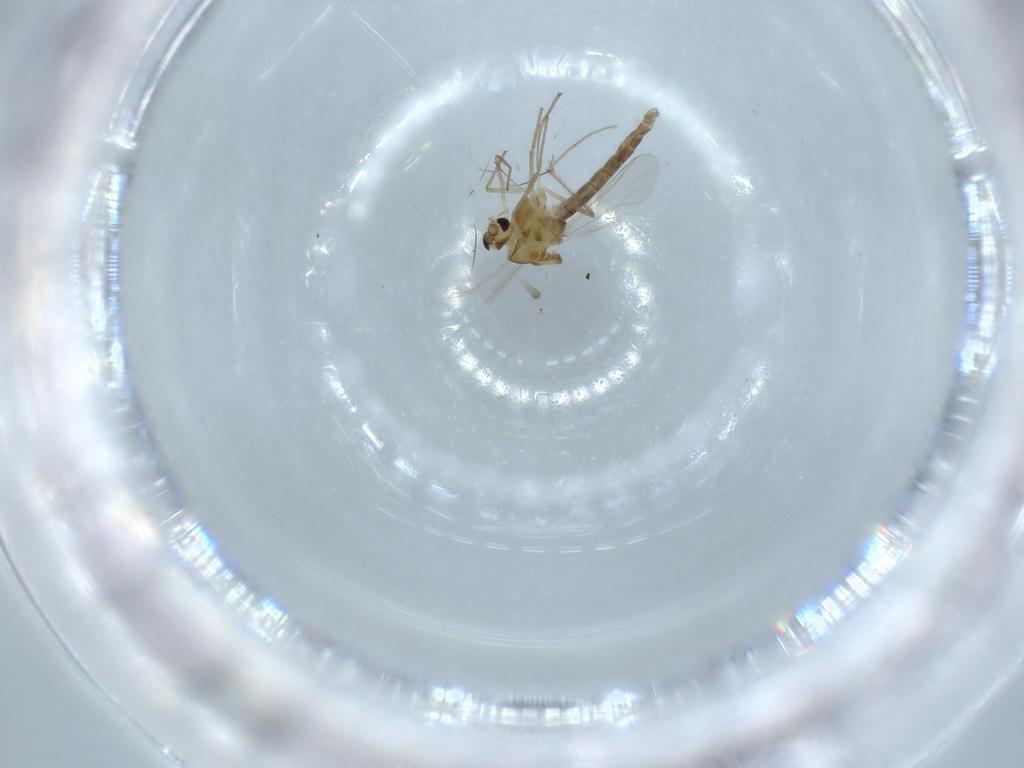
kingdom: Animalia
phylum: Arthropoda
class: Insecta
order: Diptera
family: Chironomidae
